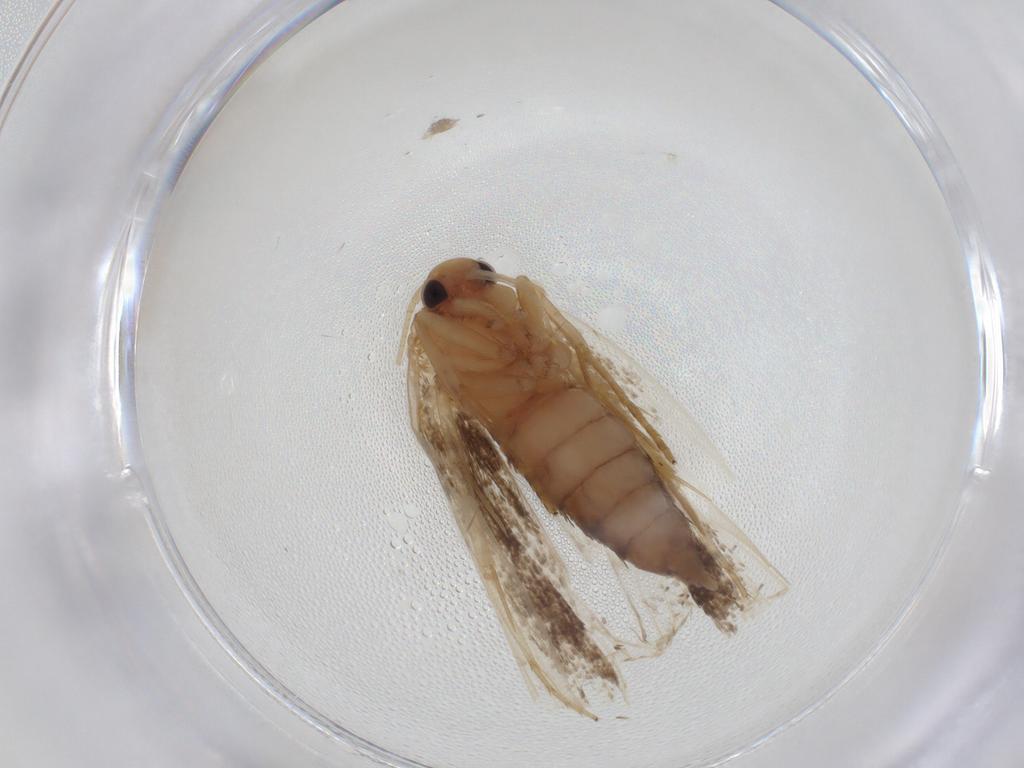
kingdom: Animalia
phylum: Arthropoda
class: Insecta
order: Lepidoptera
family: Depressariidae
